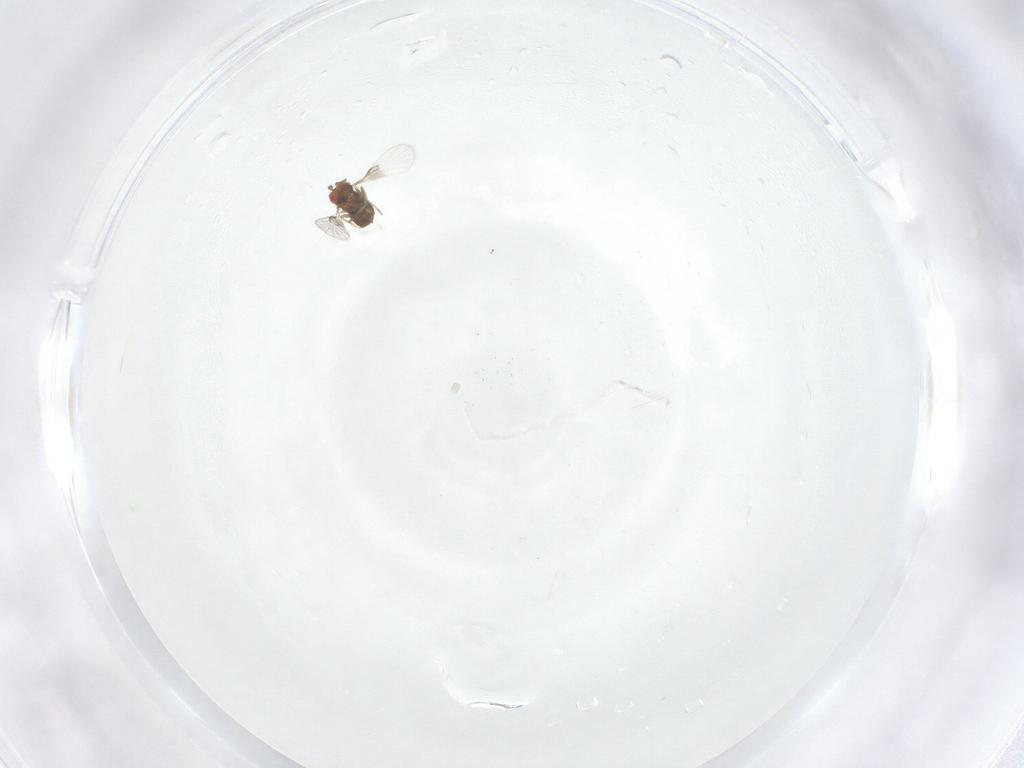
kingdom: Animalia
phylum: Arthropoda
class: Insecta
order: Hymenoptera
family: Trichogrammatidae
